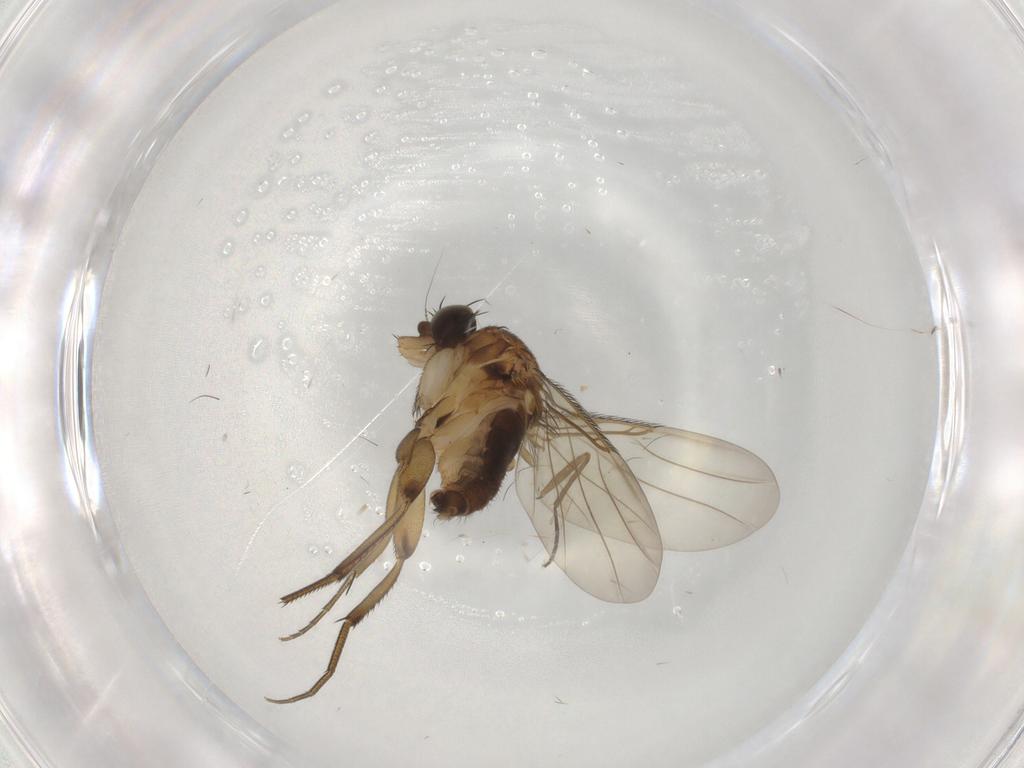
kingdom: Animalia
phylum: Arthropoda
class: Insecta
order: Diptera
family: Phoridae
